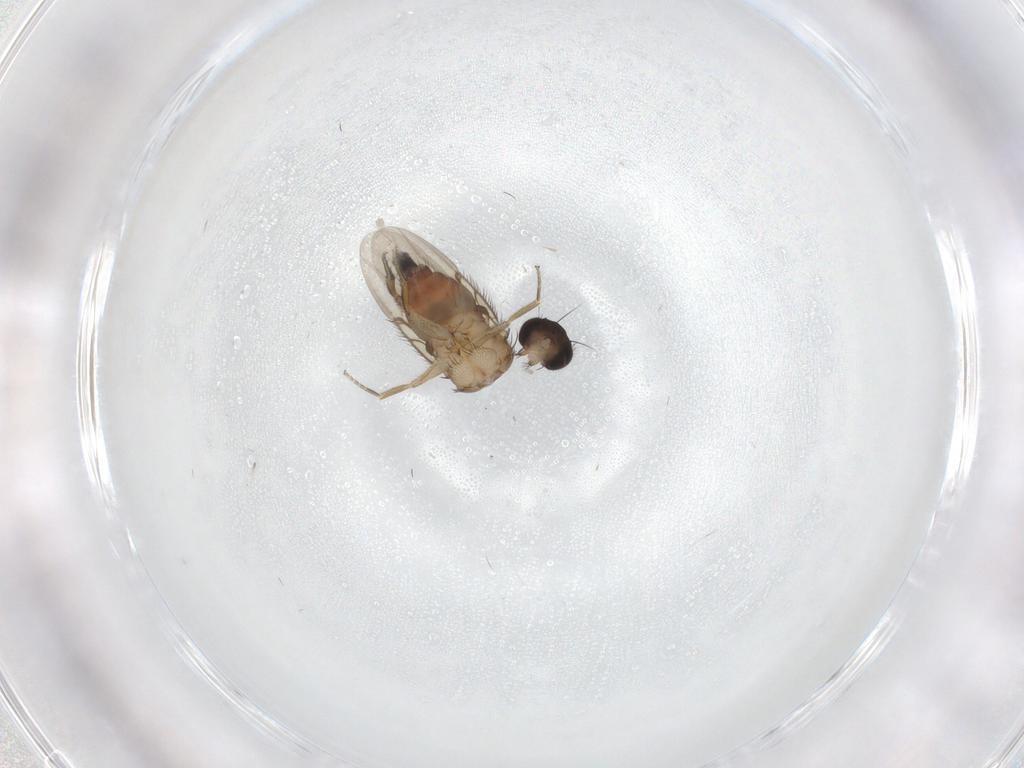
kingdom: Animalia
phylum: Arthropoda
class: Insecta
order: Diptera
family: Phoridae
